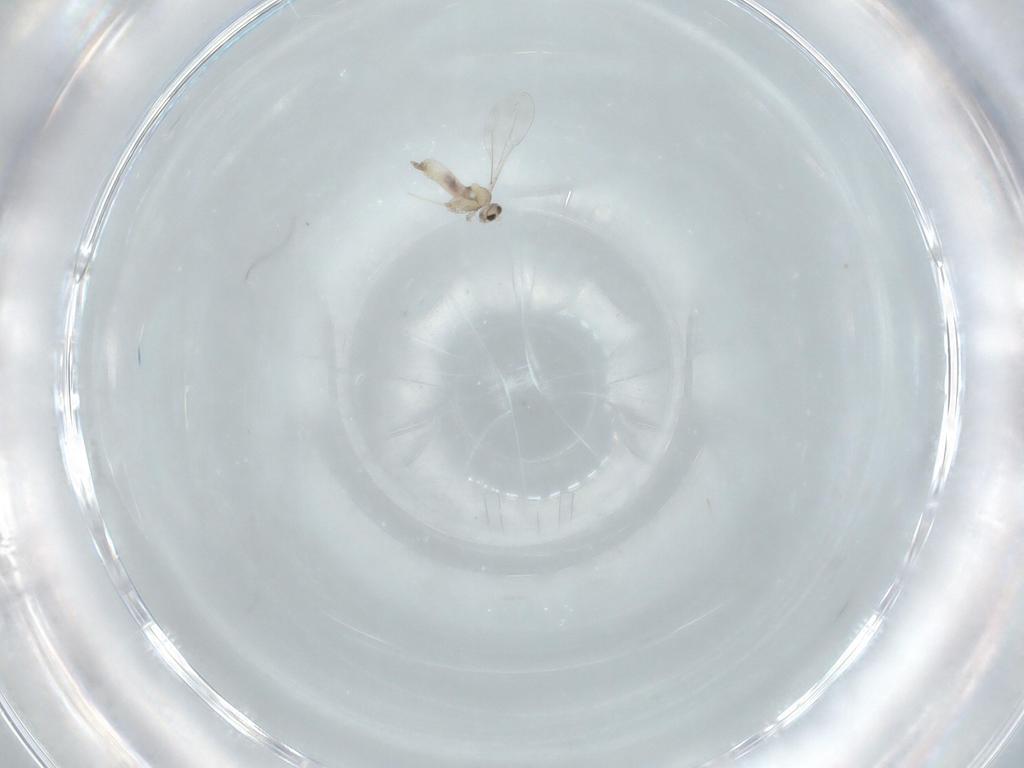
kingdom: Animalia
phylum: Arthropoda
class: Insecta
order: Diptera
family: Cecidomyiidae
